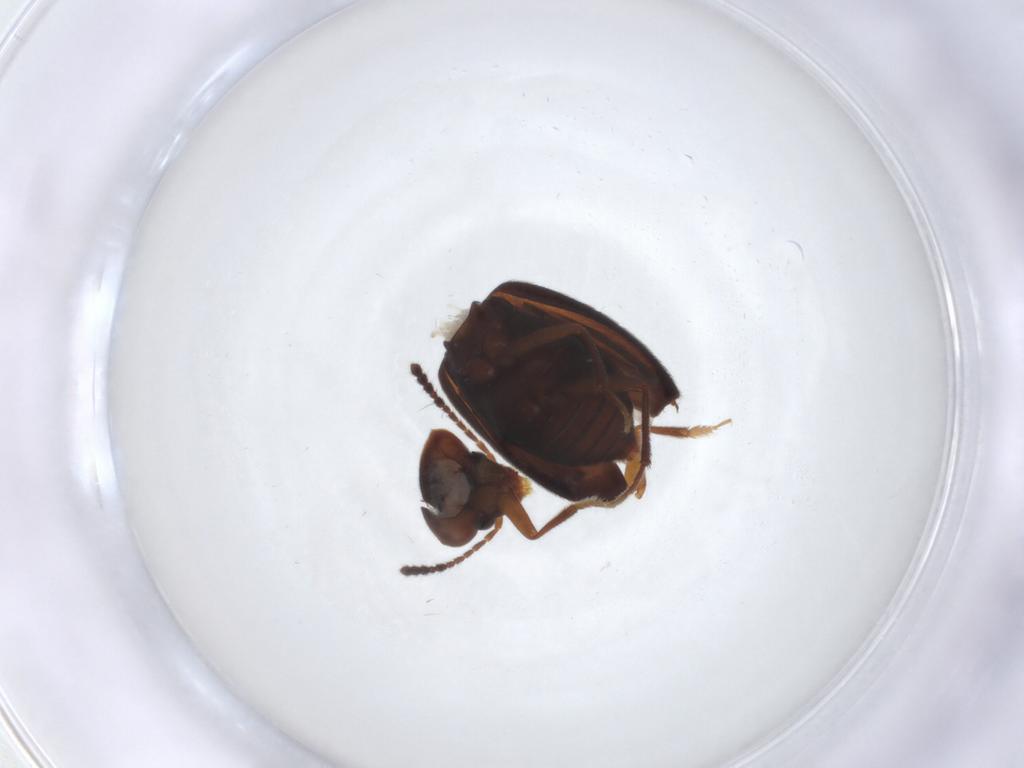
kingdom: Animalia
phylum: Arthropoda
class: Insecta
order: Coleoptera
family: Leiodidae
